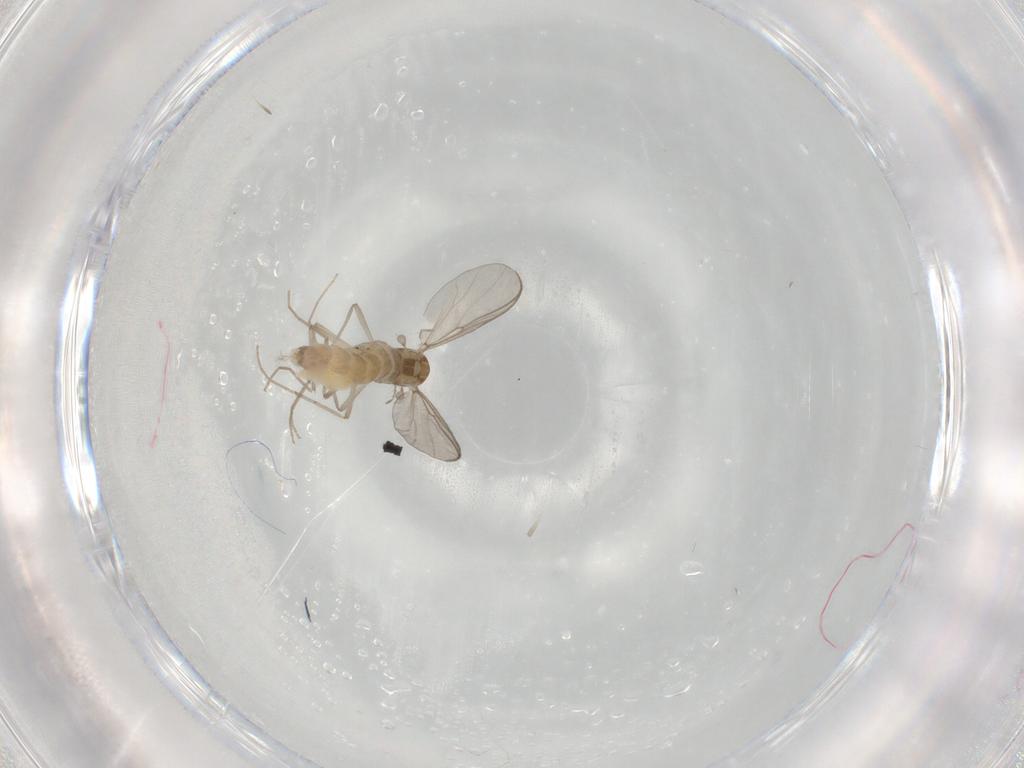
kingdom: Animalia
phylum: Arthropoda
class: Insecta
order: Diptera
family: Chironomidae
